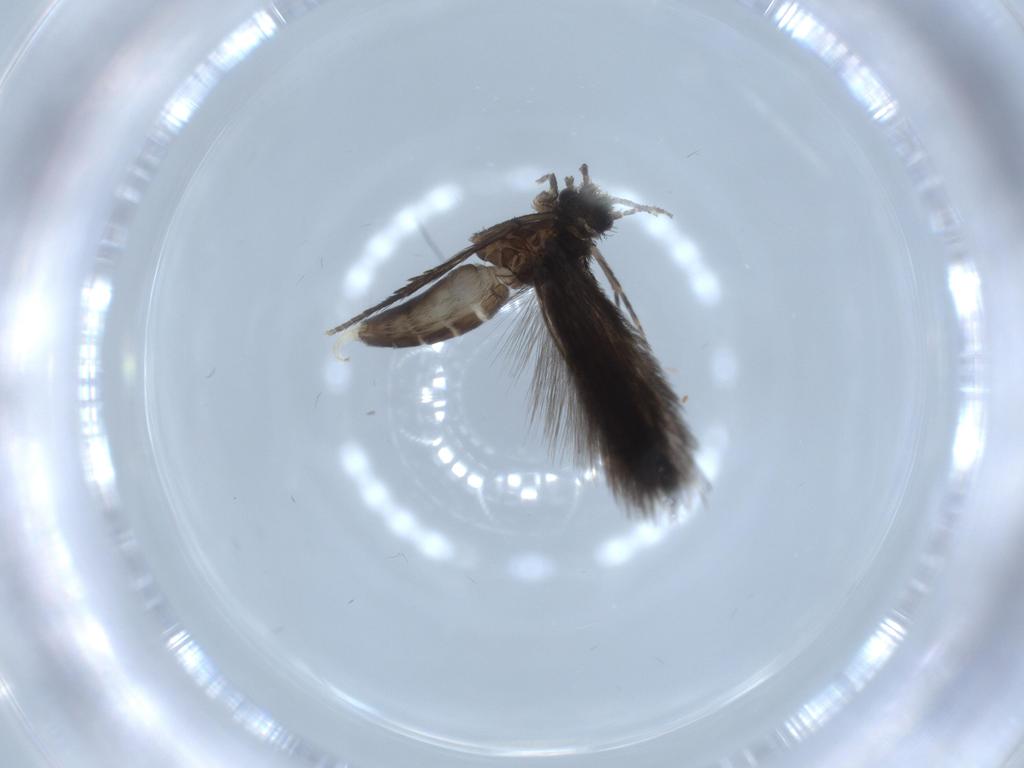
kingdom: Animalia
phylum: Arthropoda
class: Insecta
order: Trichoptera
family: Hydroptilidae
